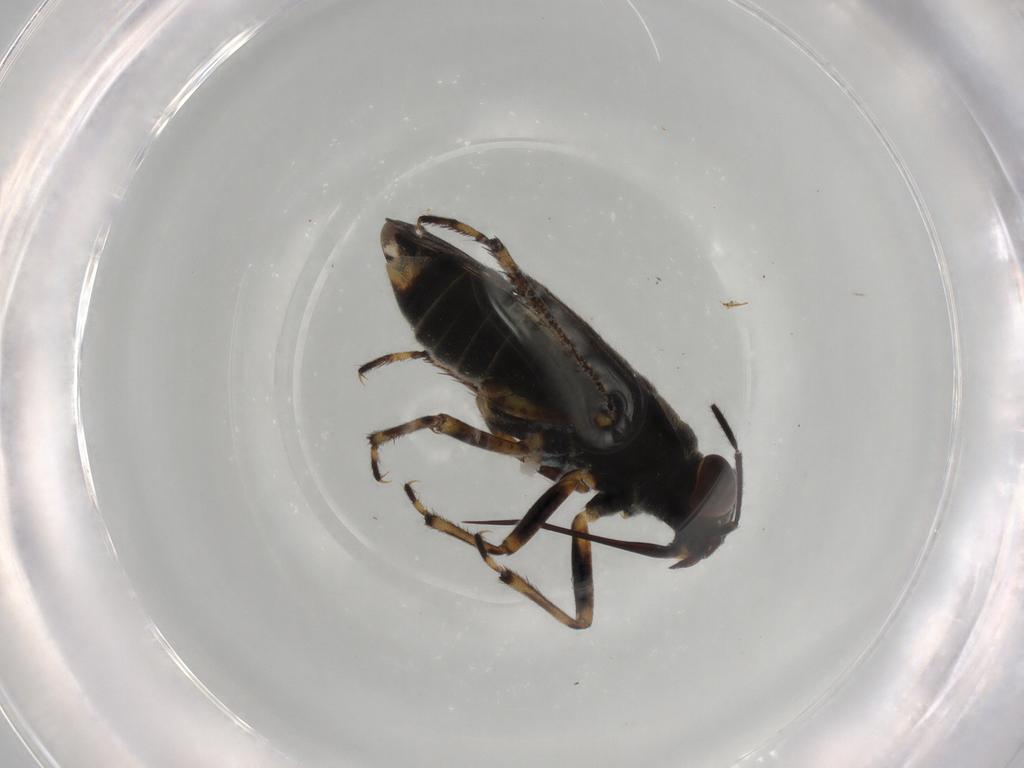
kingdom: Animalia
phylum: Arthropoda
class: Insecta
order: Hemiptera
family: Saldidae
